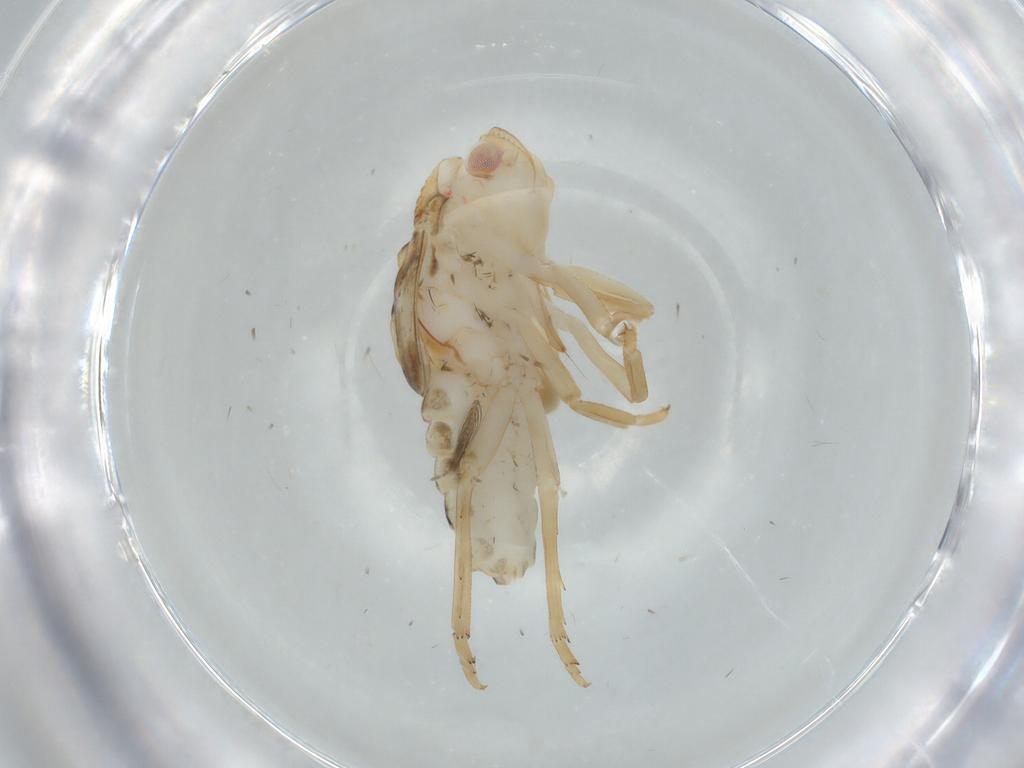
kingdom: Animalia
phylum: Arthropoda
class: Insecta
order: Hemiptera
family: Flatidae
